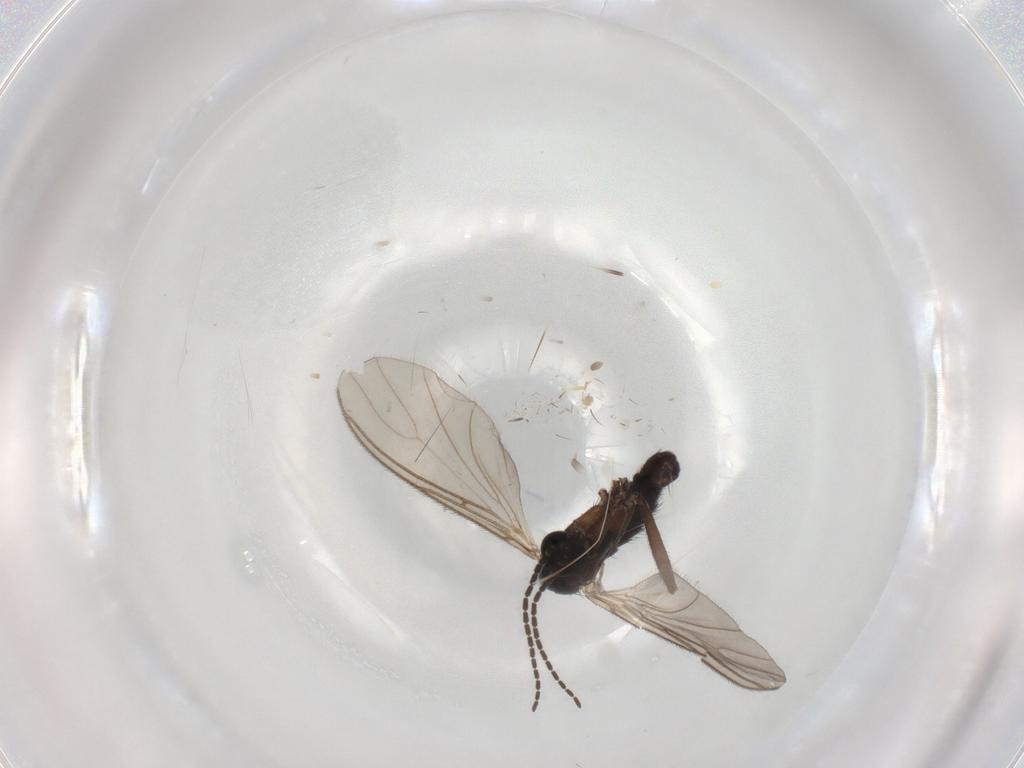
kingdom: Animalia
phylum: Arthropoda
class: Insecta
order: Diptera
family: Sciaridae
